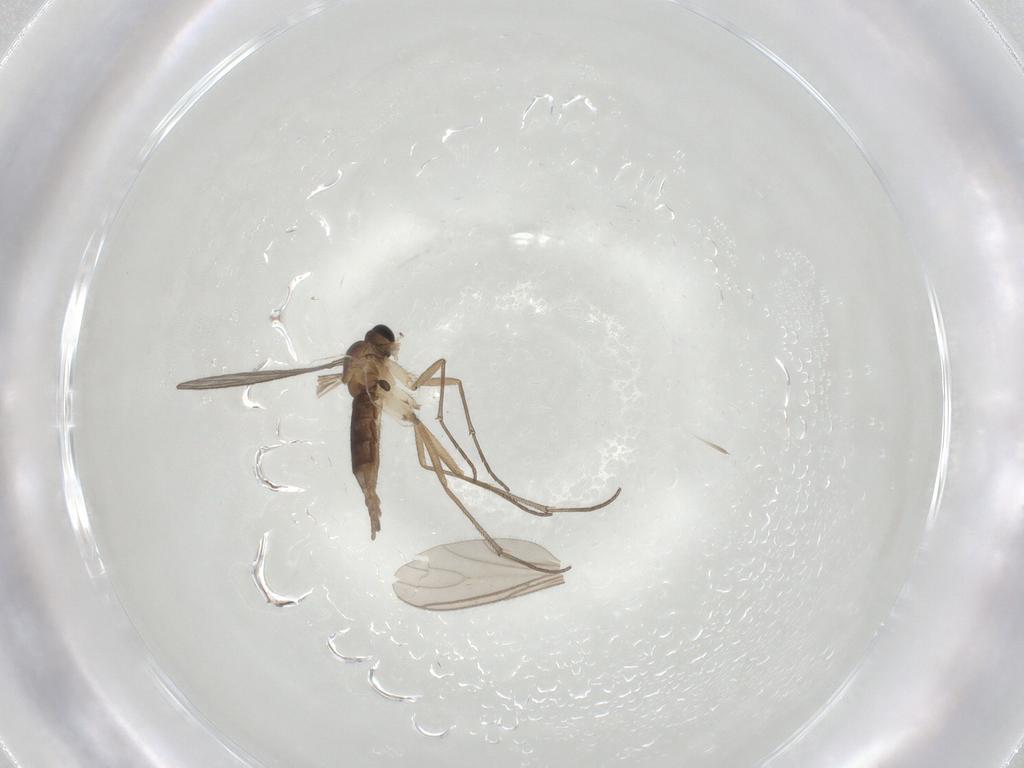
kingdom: Animalia
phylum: Arthropoda
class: Insecta
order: Diptera
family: Sciaridae
